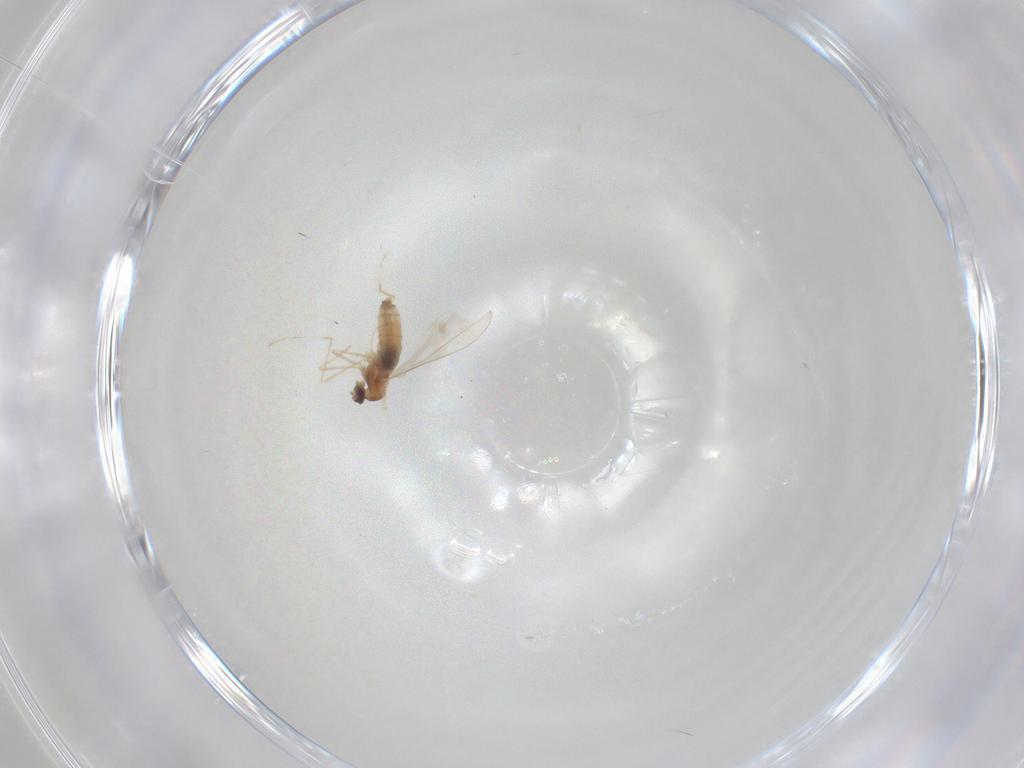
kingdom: Animalia
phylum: Arthropoda
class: Insecta
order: Diptera
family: Cecidomyiidae
